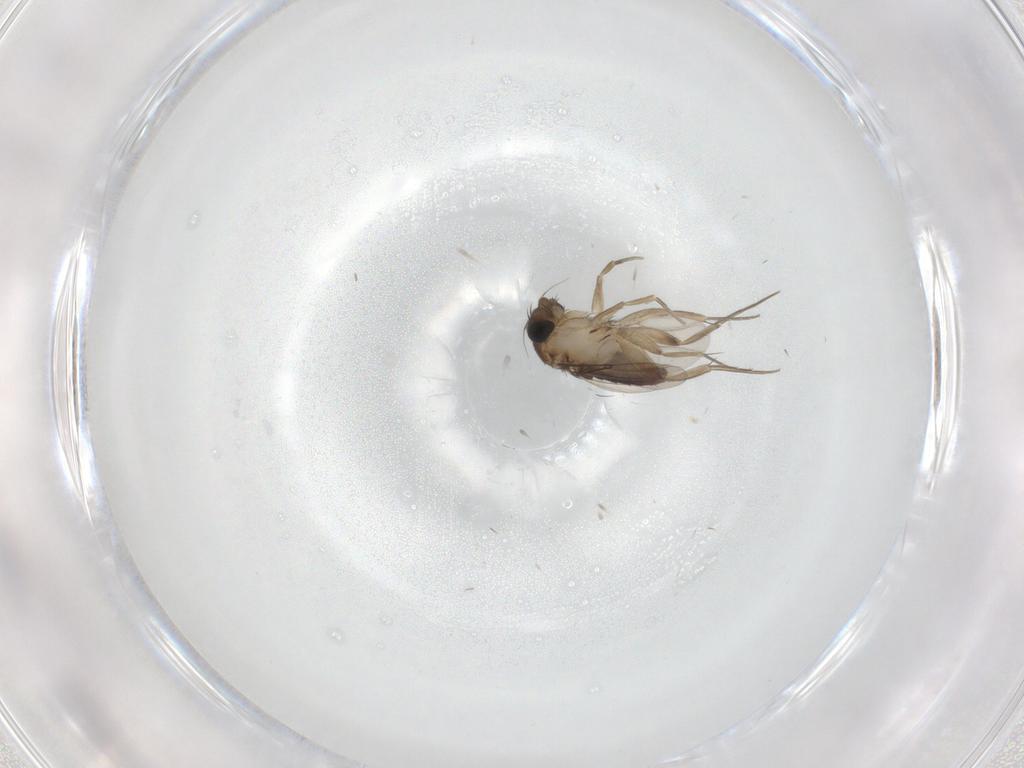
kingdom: Animalia
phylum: Arthropoda
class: Insecta
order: Diptera
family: Phoridae
